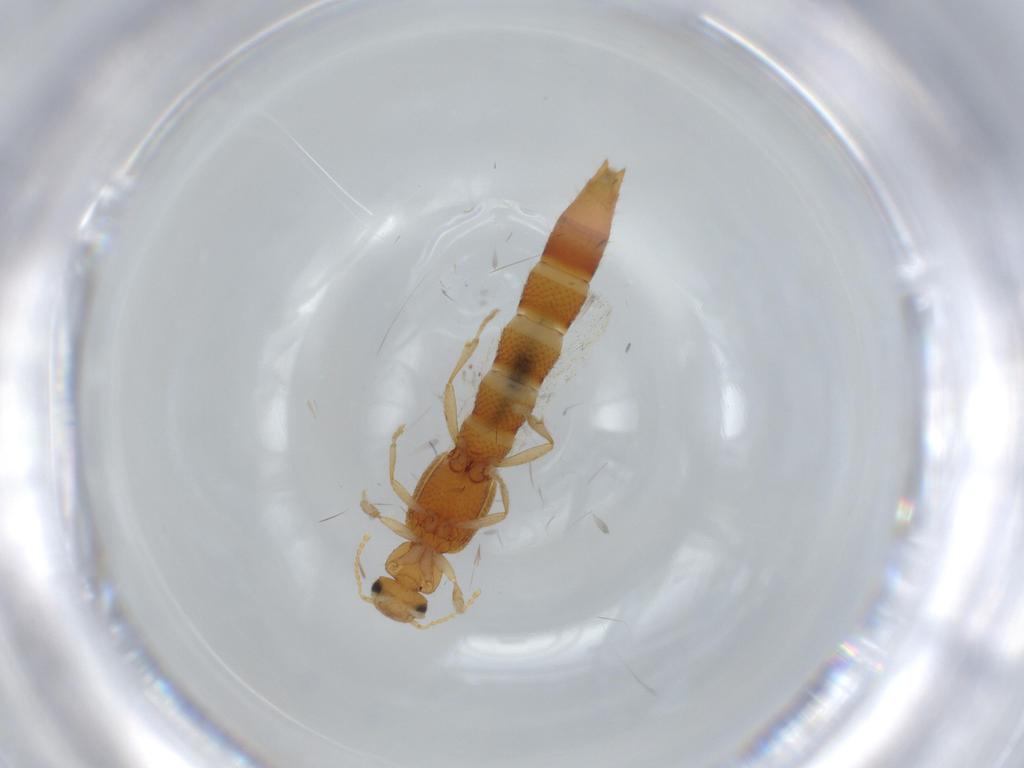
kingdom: Animalia
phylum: Arthropoda
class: Insecta
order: Coleoptera
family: Staphylinidae
